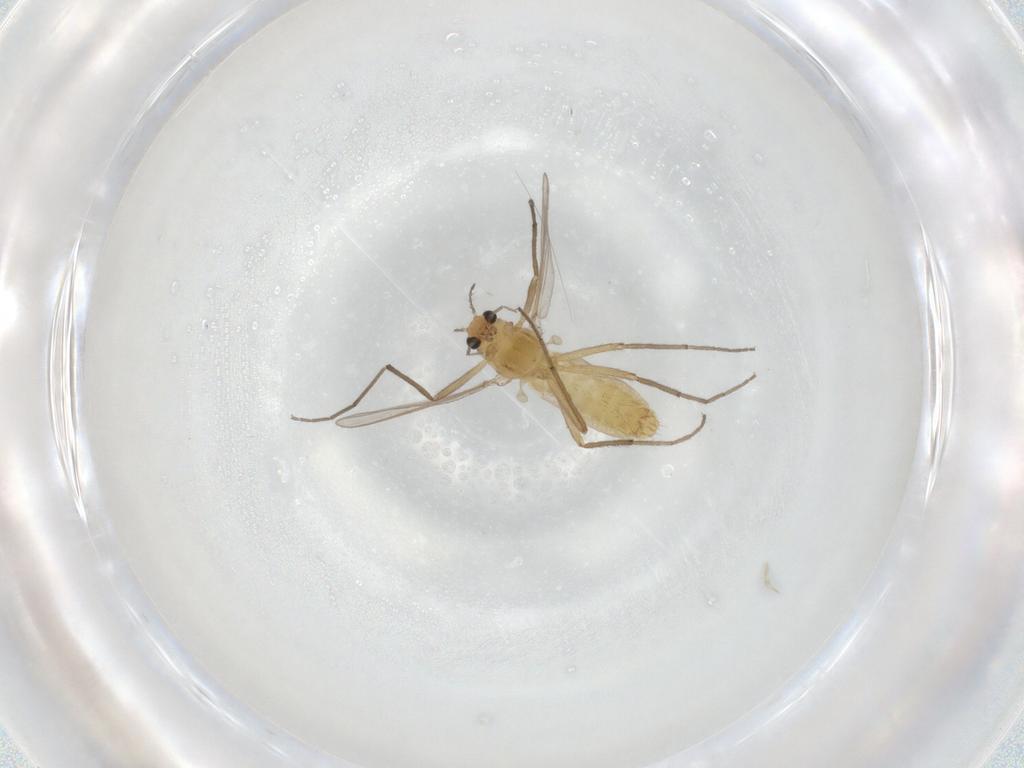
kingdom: Animalia
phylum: Arthropoda
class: Insecta
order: Diptera
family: Chironomidae
